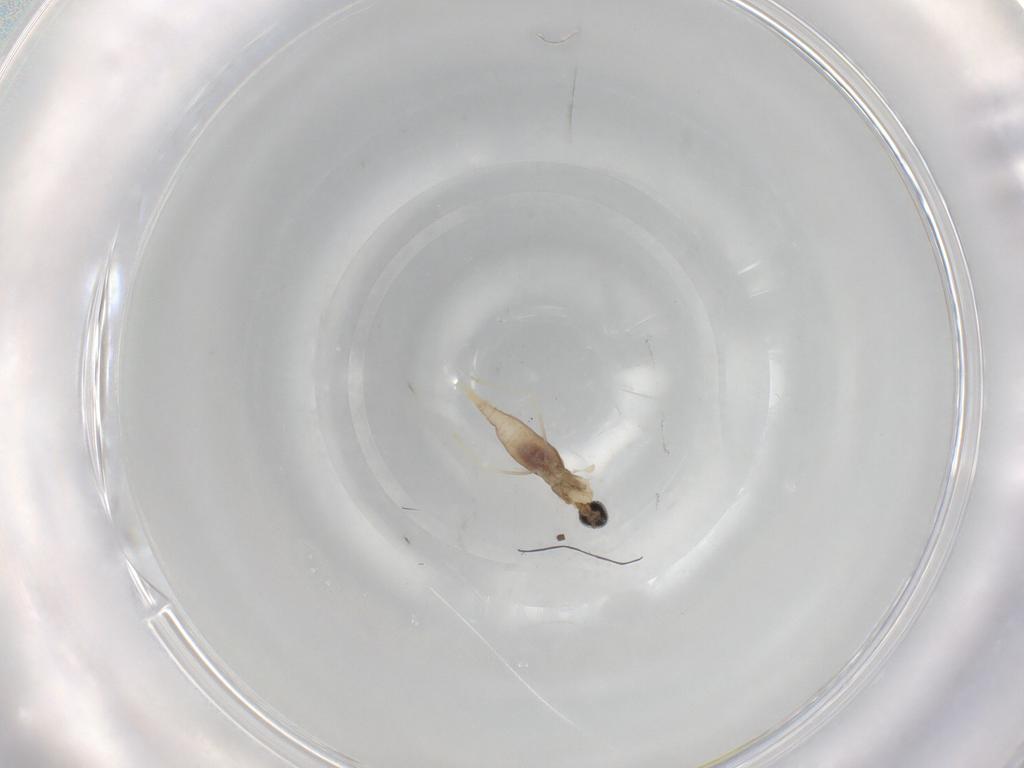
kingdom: Animalia
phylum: Arthropoda
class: Insecta
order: Diptera
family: Cecidomyiidae
